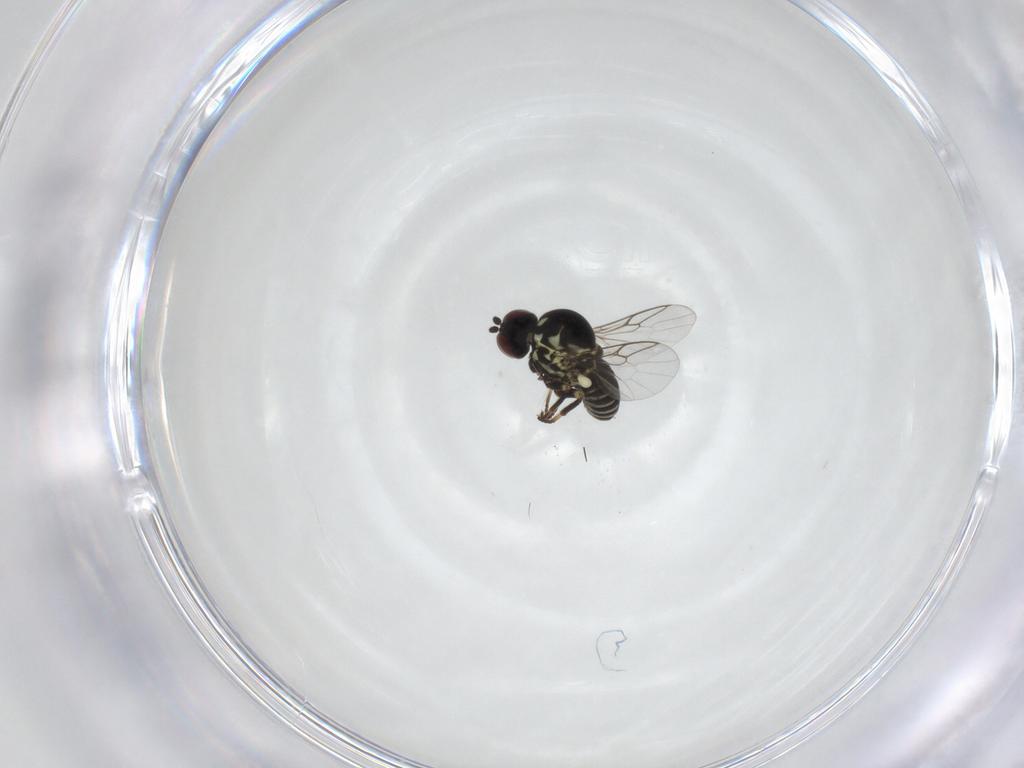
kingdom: Animalia
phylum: Arthropoda
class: Insecta
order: Diptera
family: Mythicomyiidae
